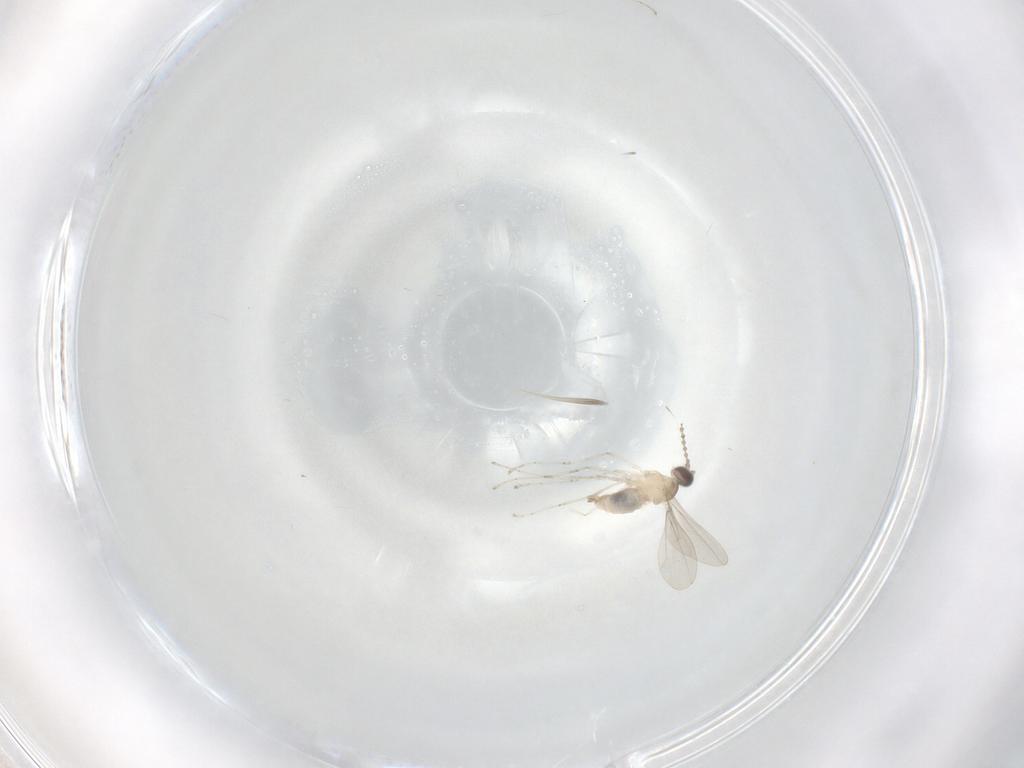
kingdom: Animalia
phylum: Arthropoda
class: Insecta
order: Diptera
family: Cecidomyiidae
